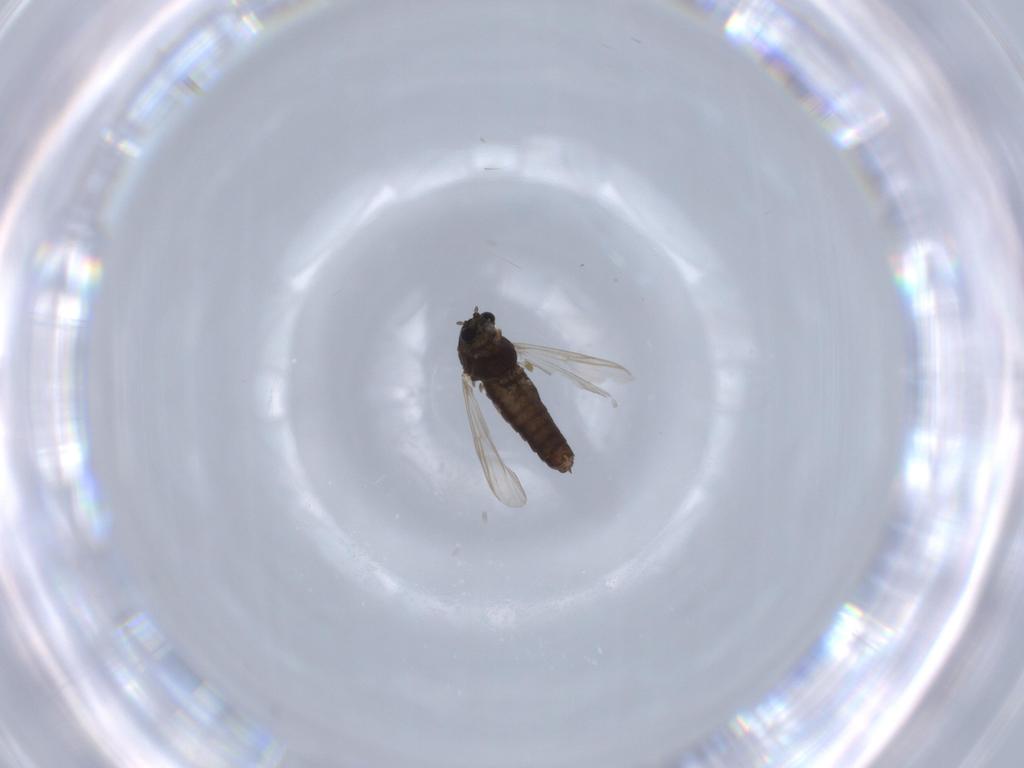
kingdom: Animalia
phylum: Arthropoda
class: Insecta
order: Diptera
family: Chironomidae
